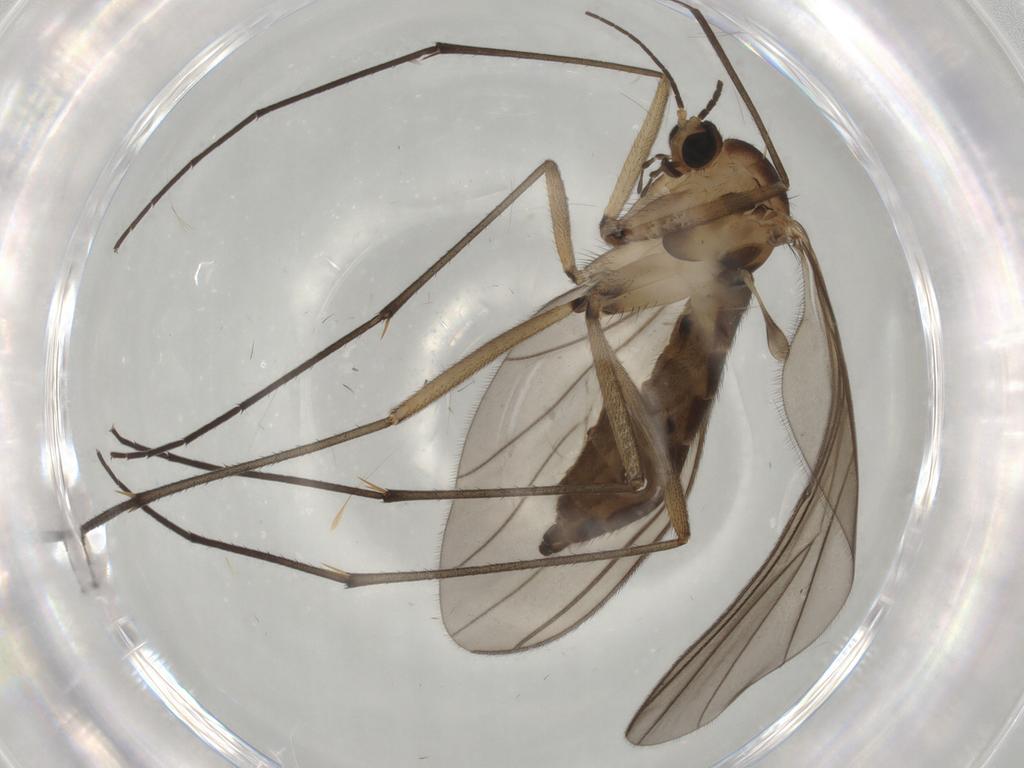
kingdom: Animalia
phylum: Arthropoda
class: Insecta
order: Diptera
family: Sciaridae
